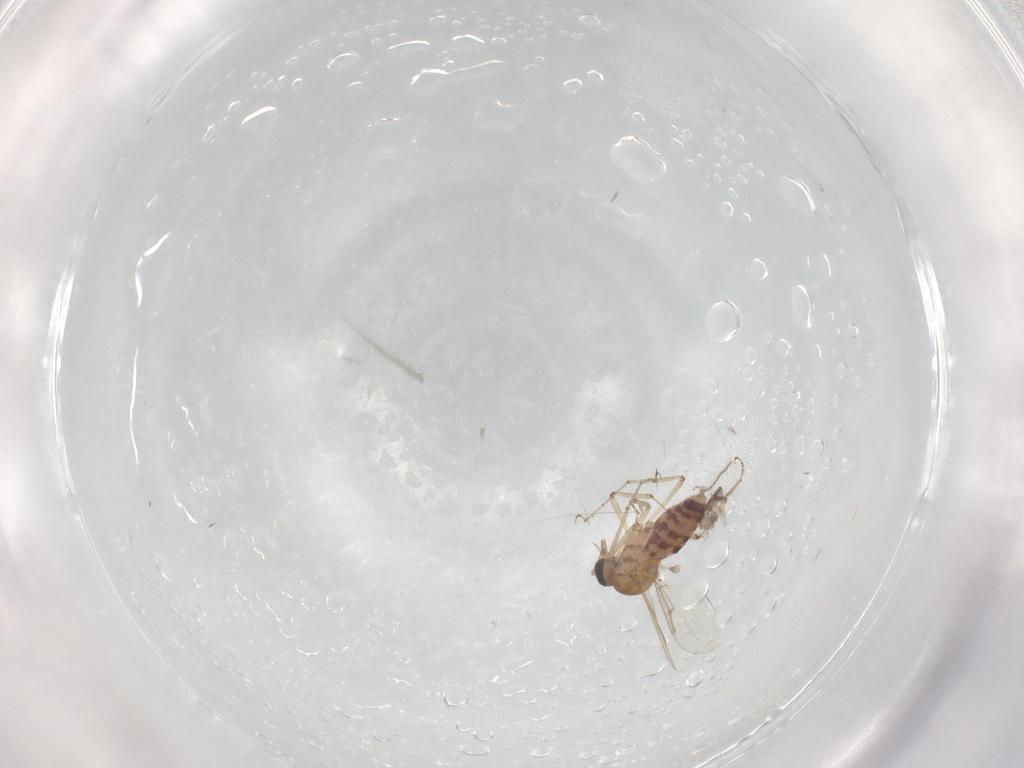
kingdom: Animalia
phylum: Arthropoda
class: Insecta
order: Diptera
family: Ceratopogonidae
